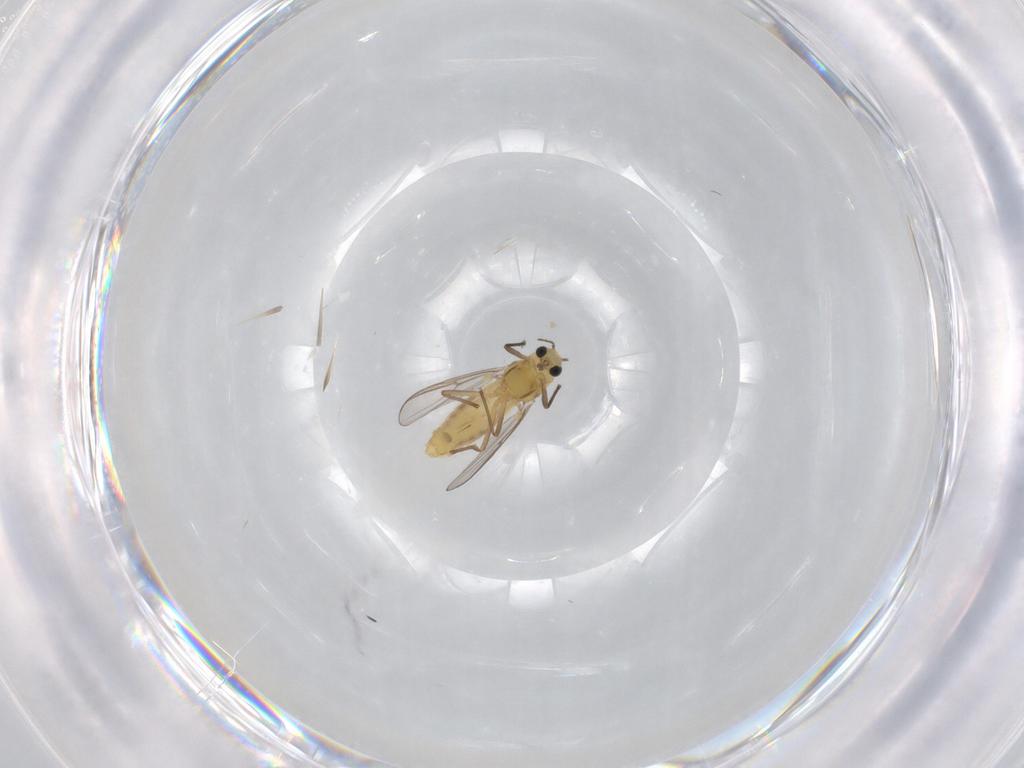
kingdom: Animalia
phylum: Arthropoda
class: Insecta
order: Diptera
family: Chironomidae
